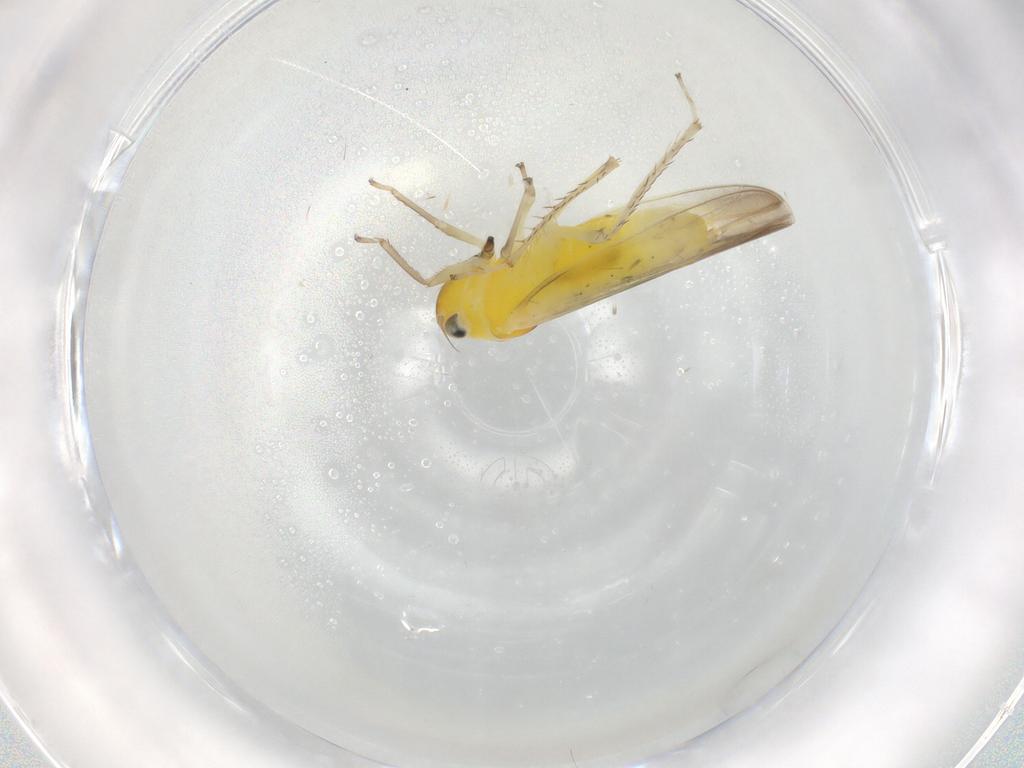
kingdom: Animalia
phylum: Arthropoda
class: Insecta
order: Hemiptera
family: Cicadellidae
